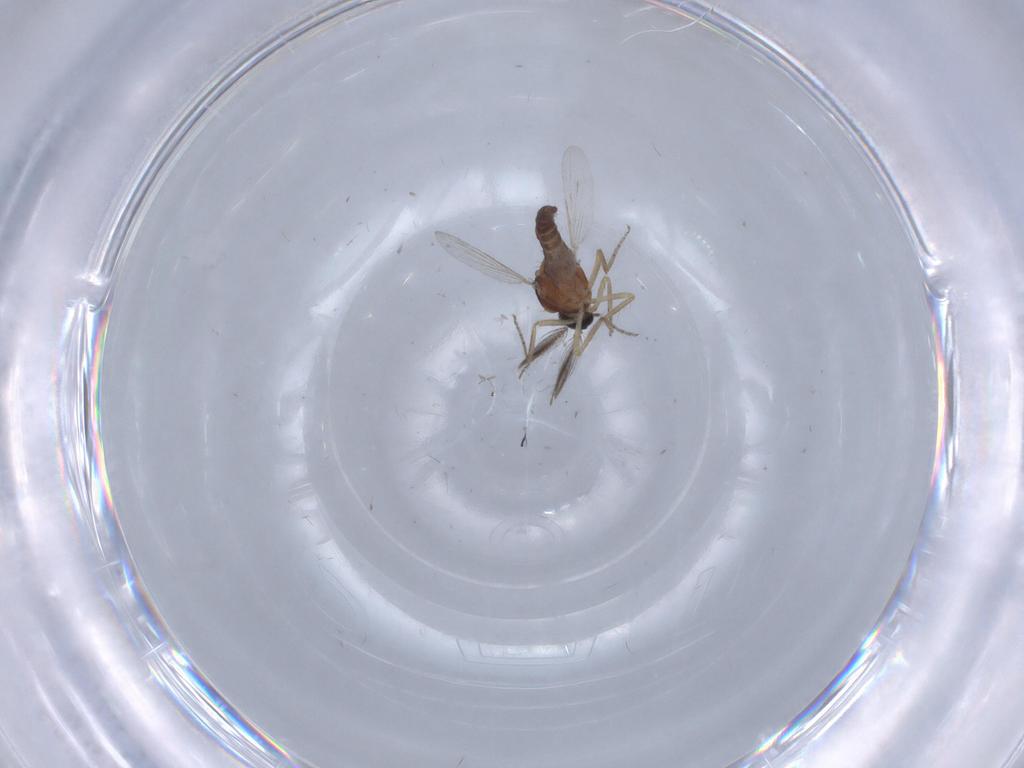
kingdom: Animalia
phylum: Arthropoda
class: Insecta
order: Diptera
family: Ceratopogonidae
